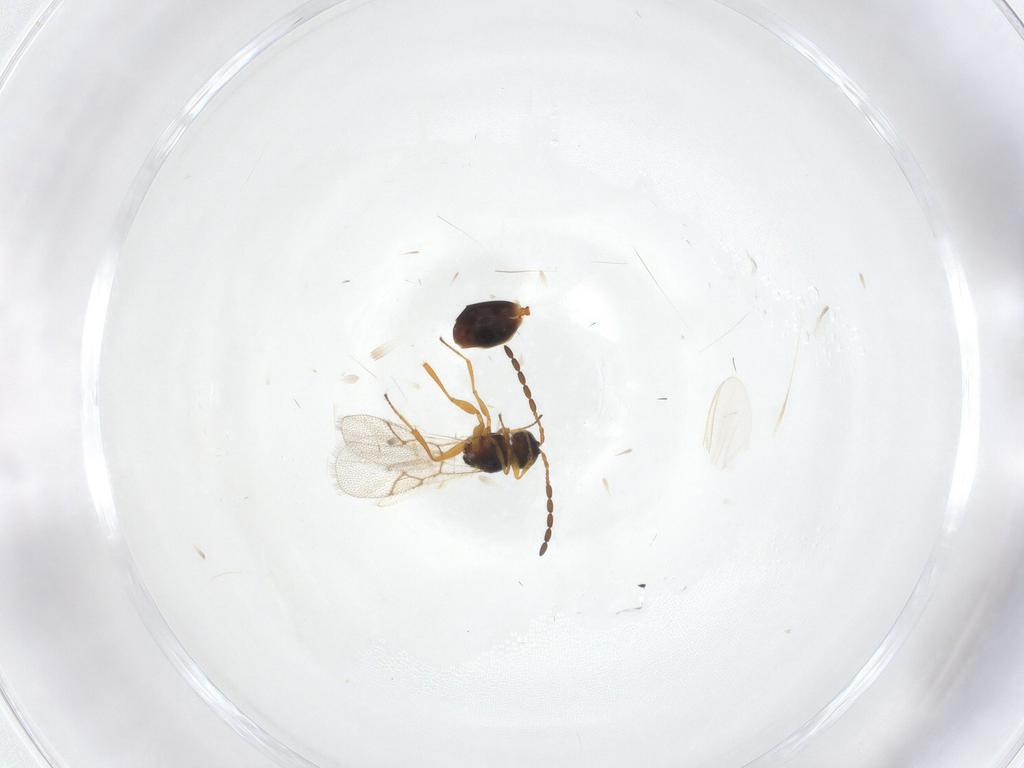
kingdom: Animalia
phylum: Arthropoda
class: Insecta
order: Hymenoptera
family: Figitidae
